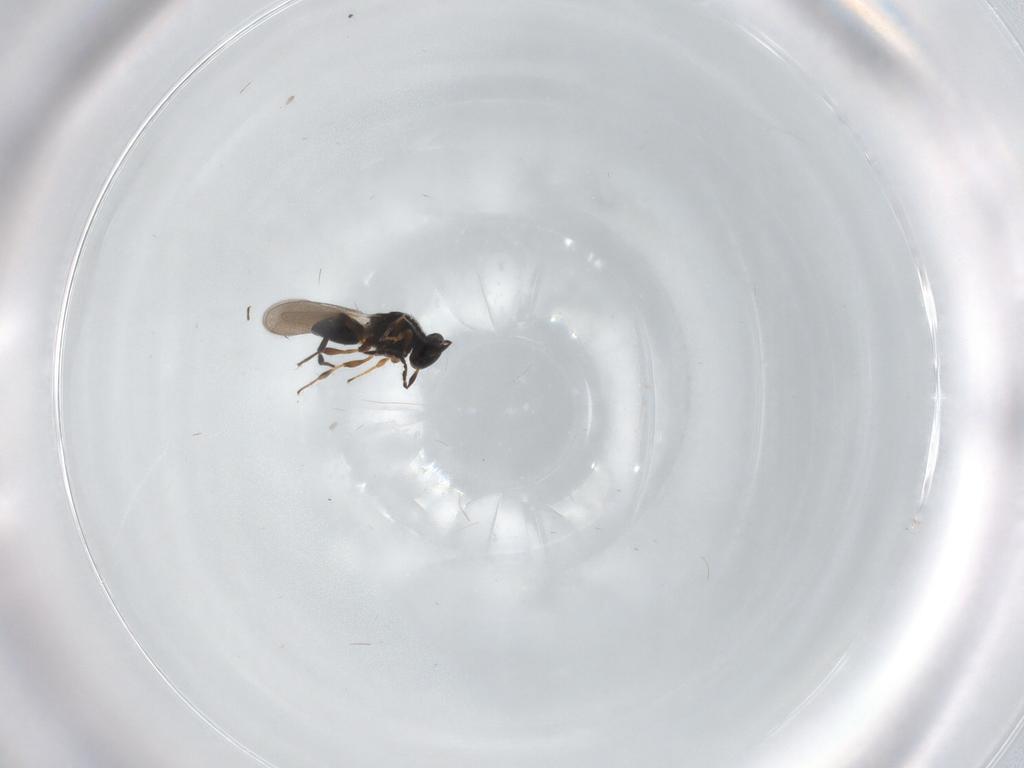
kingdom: Animalia
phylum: Arthropoda
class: Insecta
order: Hymenoptera
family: Platygastridae
